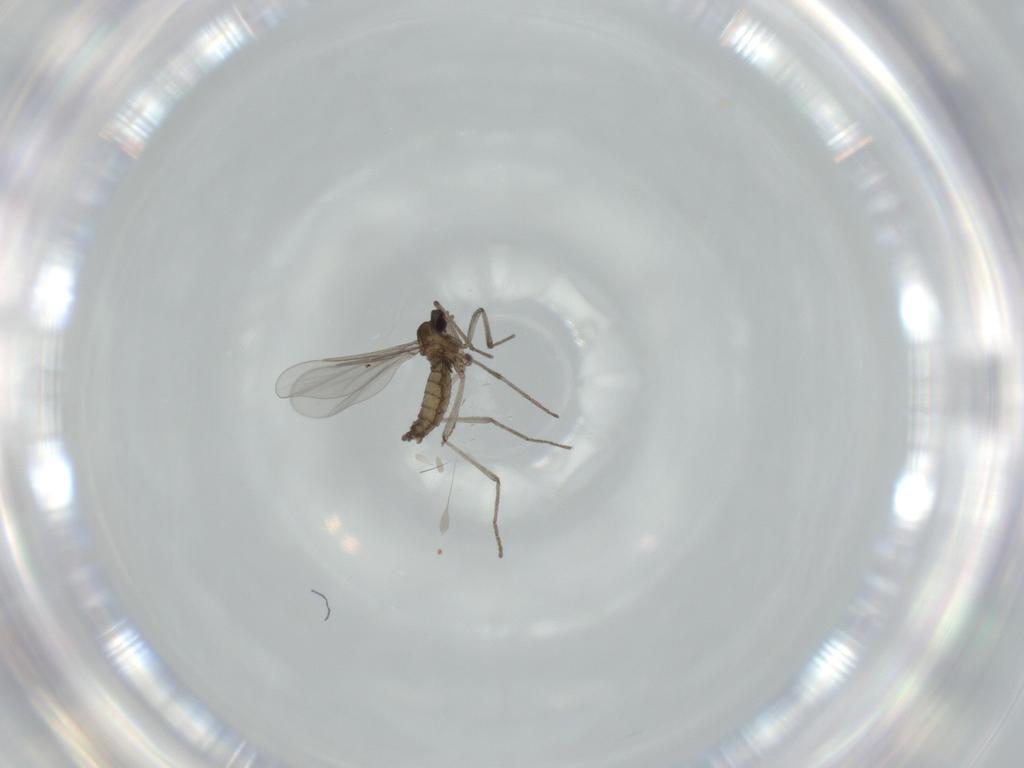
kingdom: Animalia
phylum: Arthropoda
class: Insecta
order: Diptera
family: Cecidomyiidae
